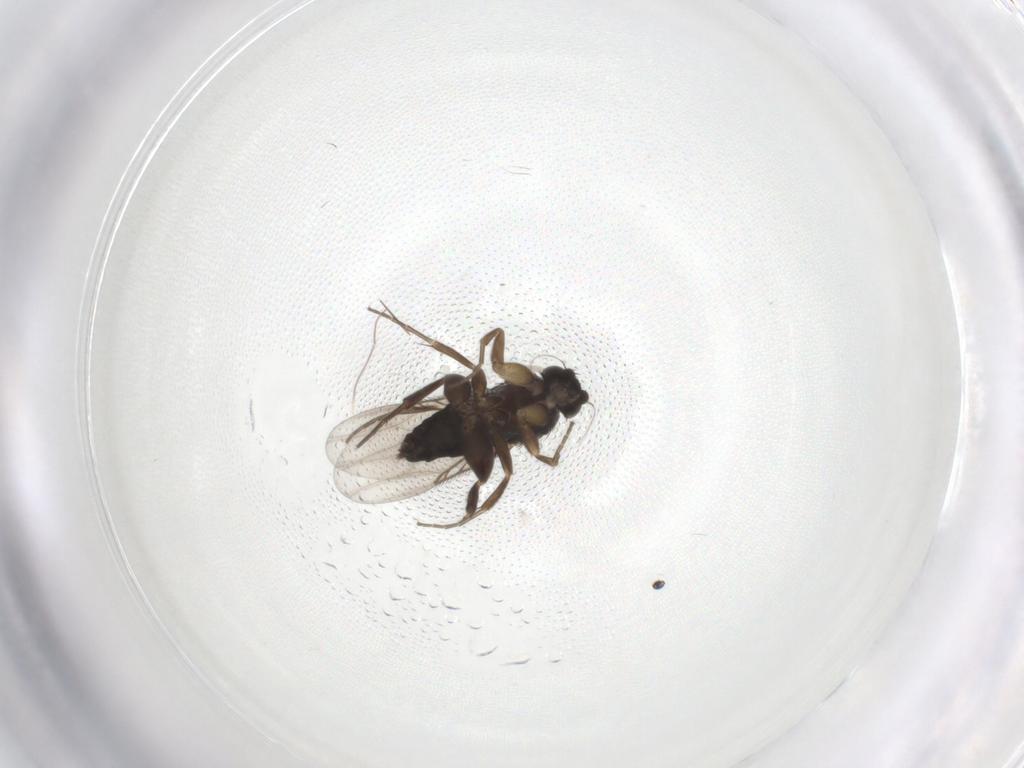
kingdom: Animalia
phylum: Arthropoda
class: Insecta
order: Diptera
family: Phoridae
